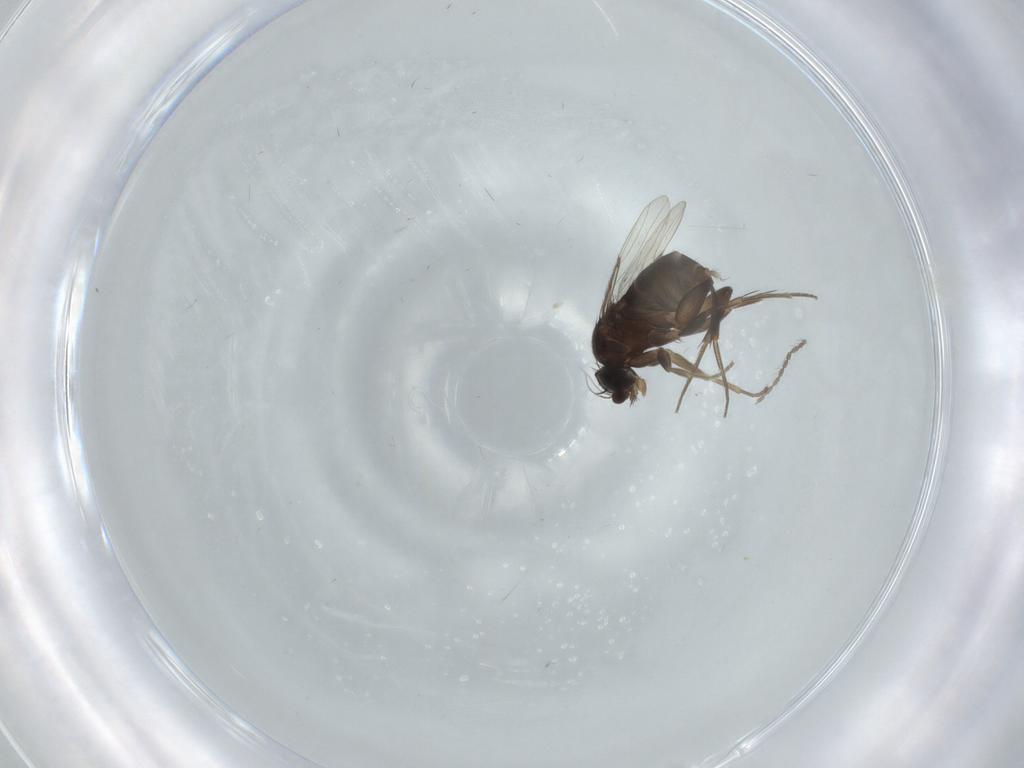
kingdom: Animalia
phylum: Arthropoda
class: Insecta
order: Diptera
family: Phoridae
